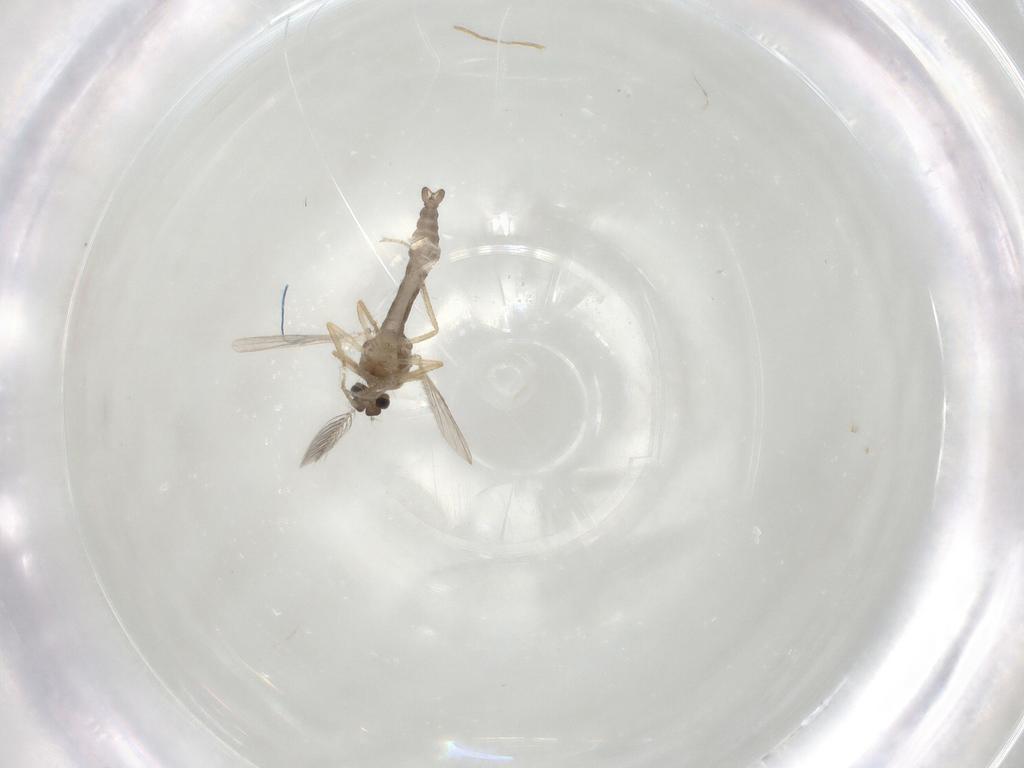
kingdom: Animalia
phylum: Arthropoda
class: Insecta
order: Diptera
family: Ceratopogonidae
